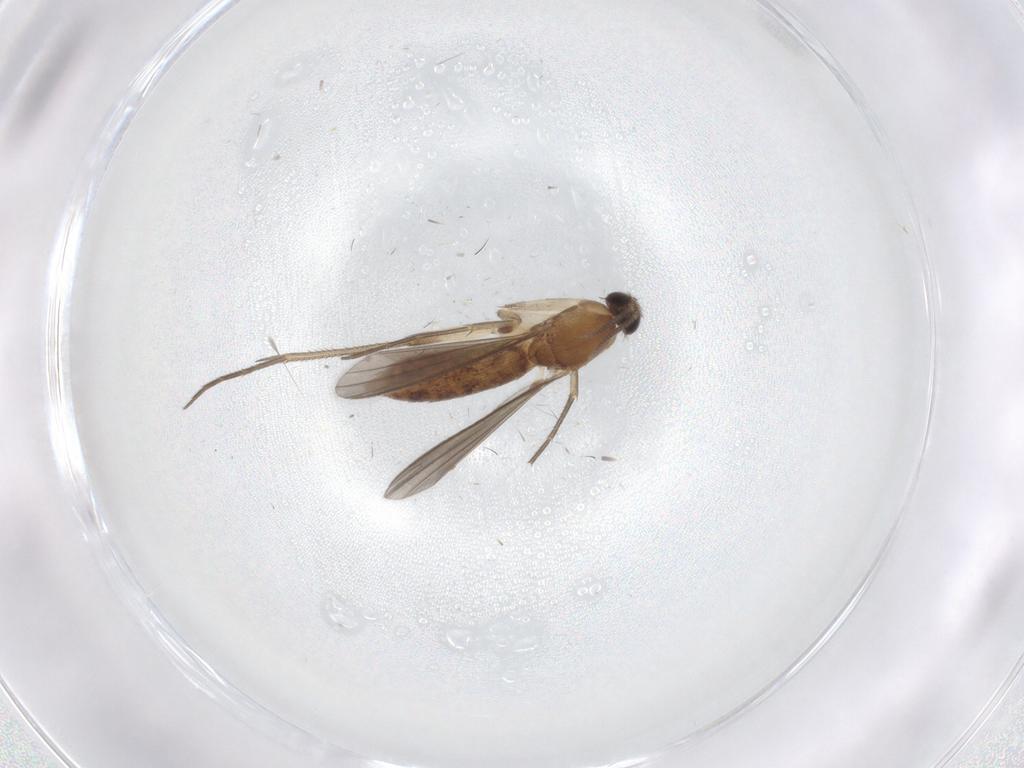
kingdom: Animalia
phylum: Arthropoda
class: Insecta
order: Diptera
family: Mycetophilidae
